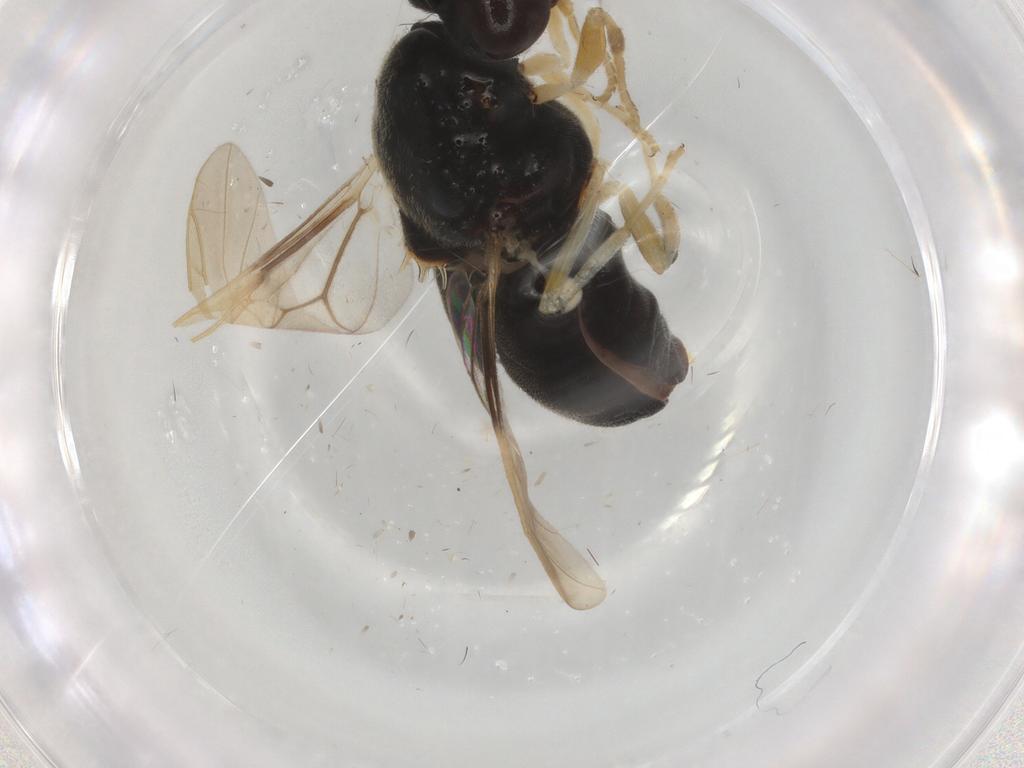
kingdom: Animalia
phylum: Arthropoda
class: Insecta
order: Diptera
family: Stratiomyidae
